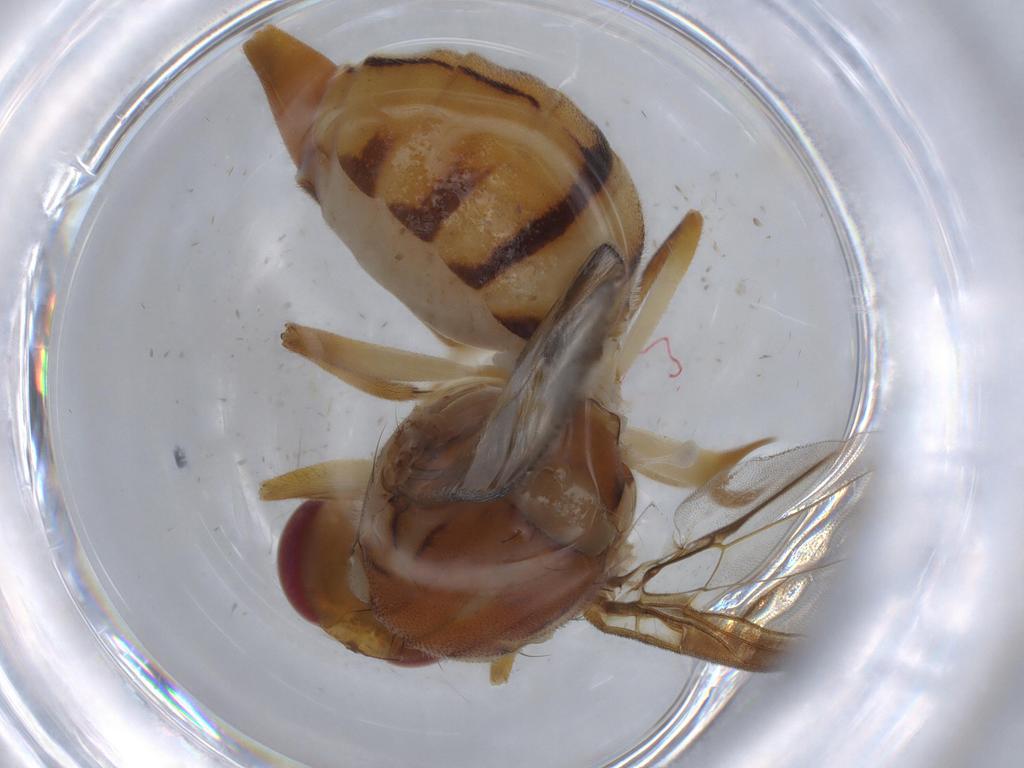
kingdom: Animalia
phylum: Arthropoda
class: Insecta
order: Diptera
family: Tephritidae
